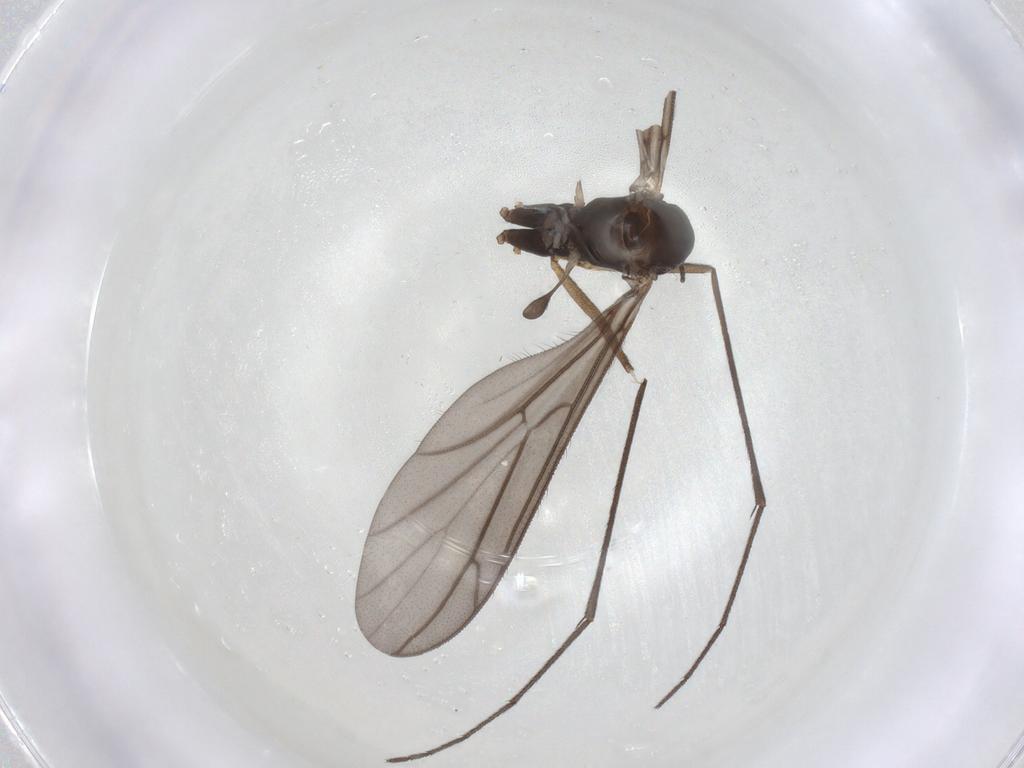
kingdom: Animalia
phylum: Arthropoda
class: Insecta
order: Diptera
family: Keroplatidae
